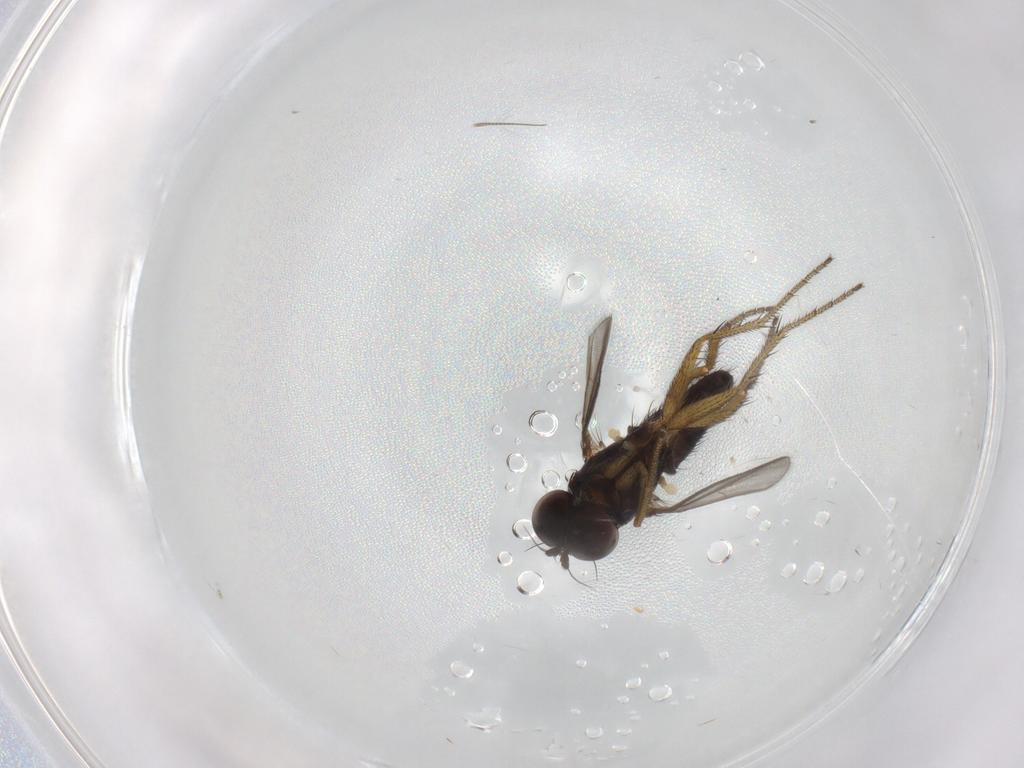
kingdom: Animalia
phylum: Arthropoda
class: Insecta
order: Diptera
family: Chironomidae
